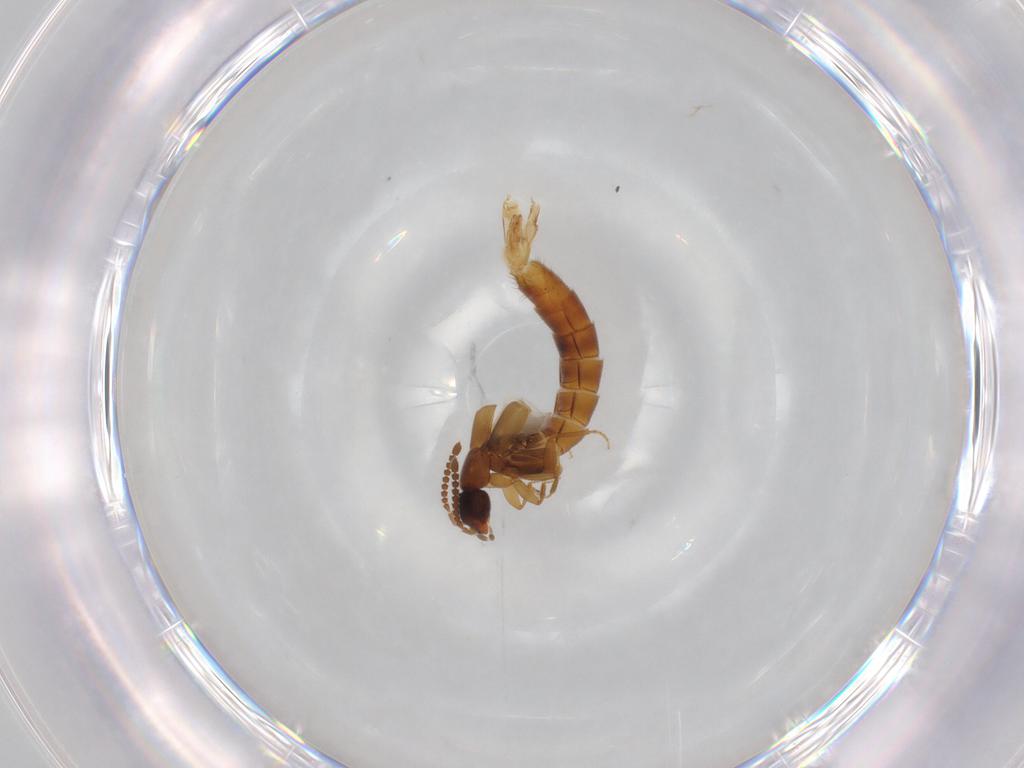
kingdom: Animalia
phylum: Arthropoda
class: Insecta
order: Coleoptera
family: Staphylinidae
